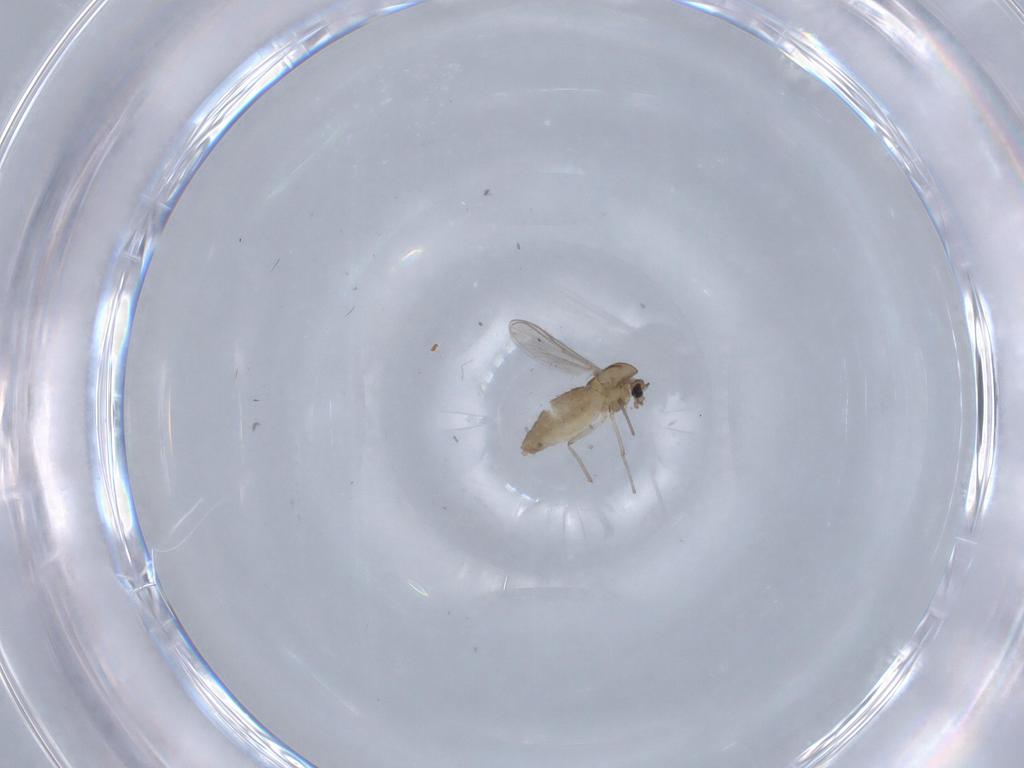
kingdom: Animalia
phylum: Arthropoda
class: Insecta
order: Diptera
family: Chironomidae
